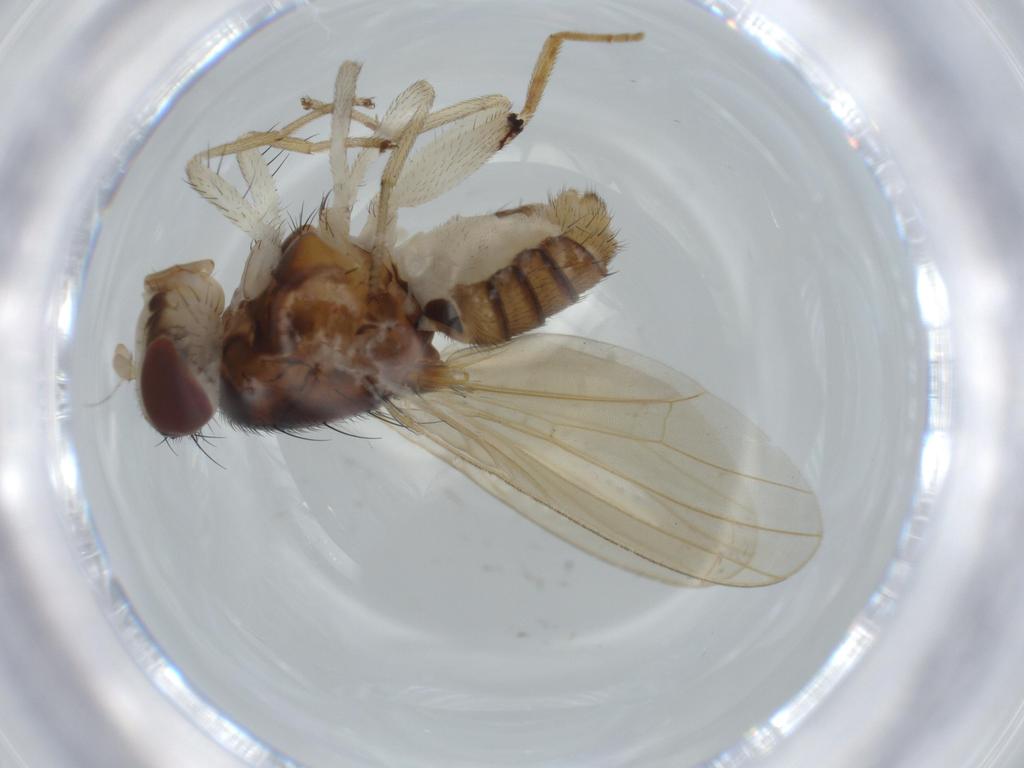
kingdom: Animalia
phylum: Arthropoda
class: Insecta
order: Diptera
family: Lauxaniidae
